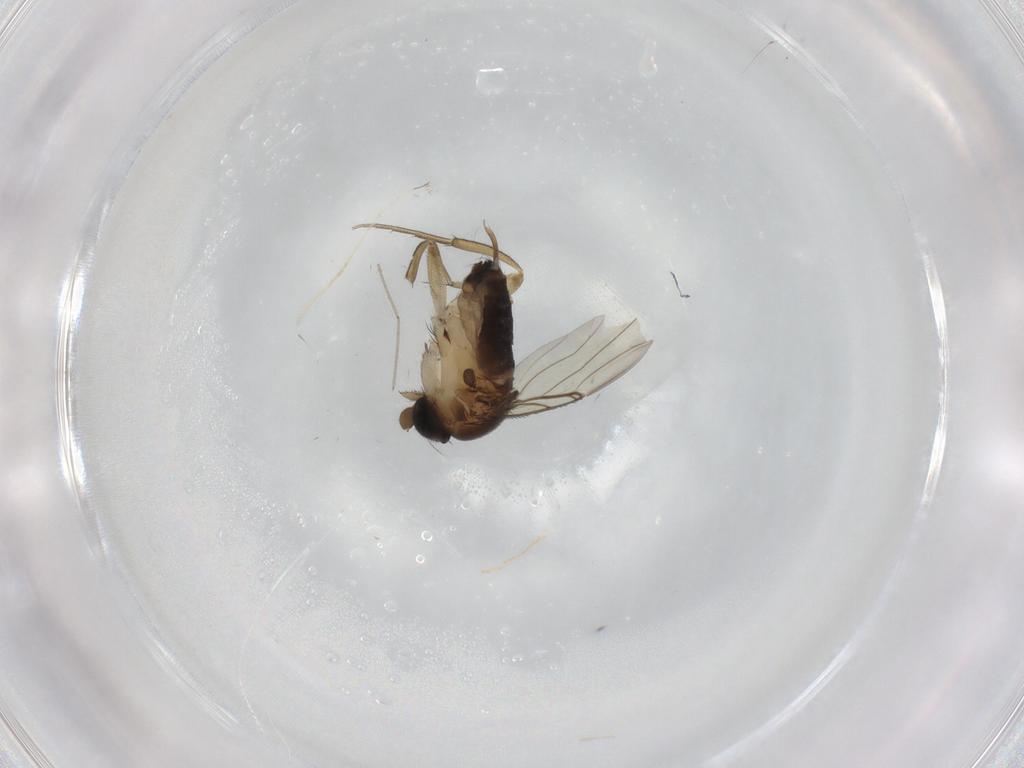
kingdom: Animalia
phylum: Arthropoda
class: Insecta
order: Diptera
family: Phoridae
